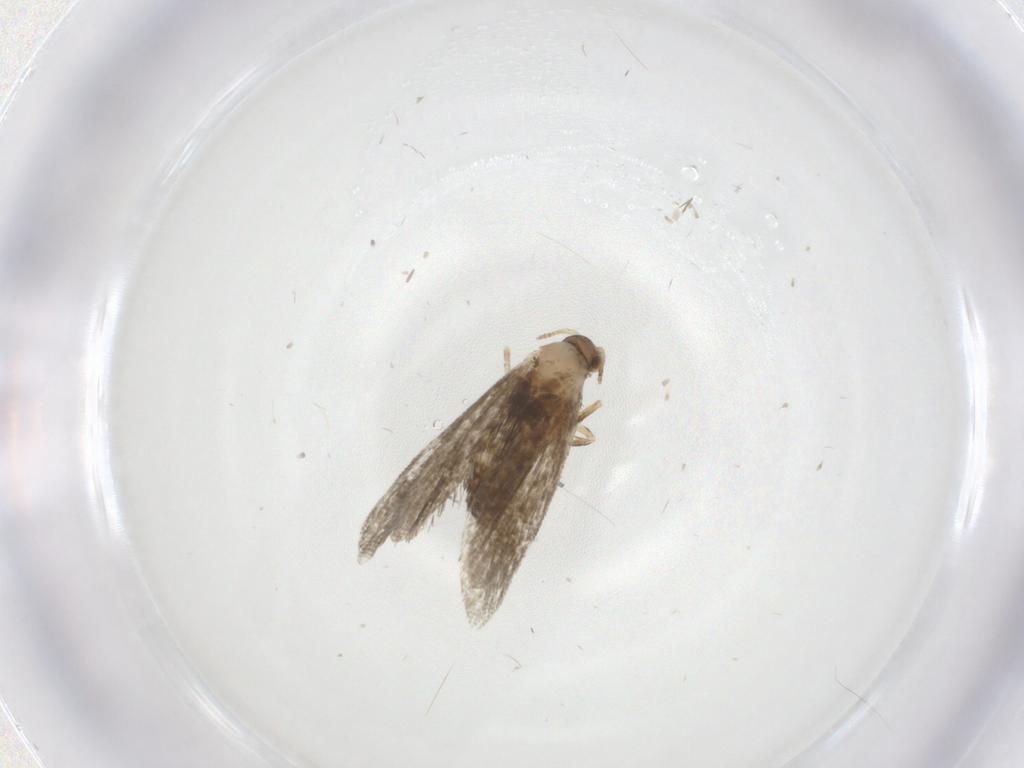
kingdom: Animalia
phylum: Arthropoda
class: Insecta
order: Lepidoptera
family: Tineidae
